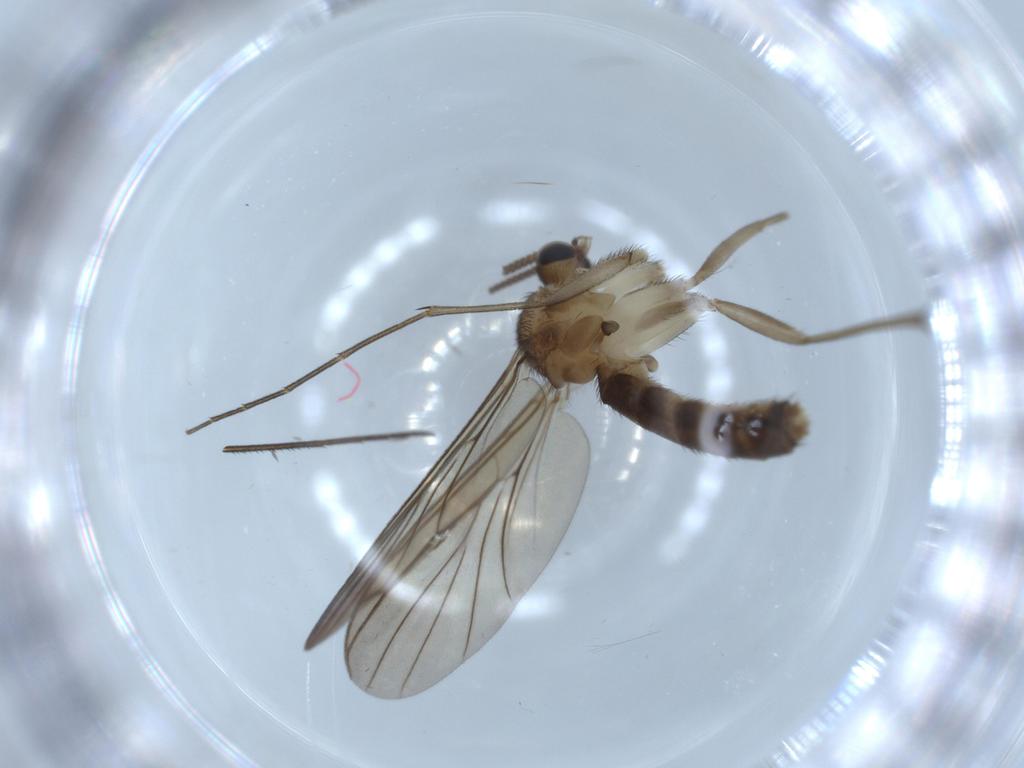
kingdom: Animalia
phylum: Arthropoda
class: Insecta
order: Diptera
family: Mycetophilidae
